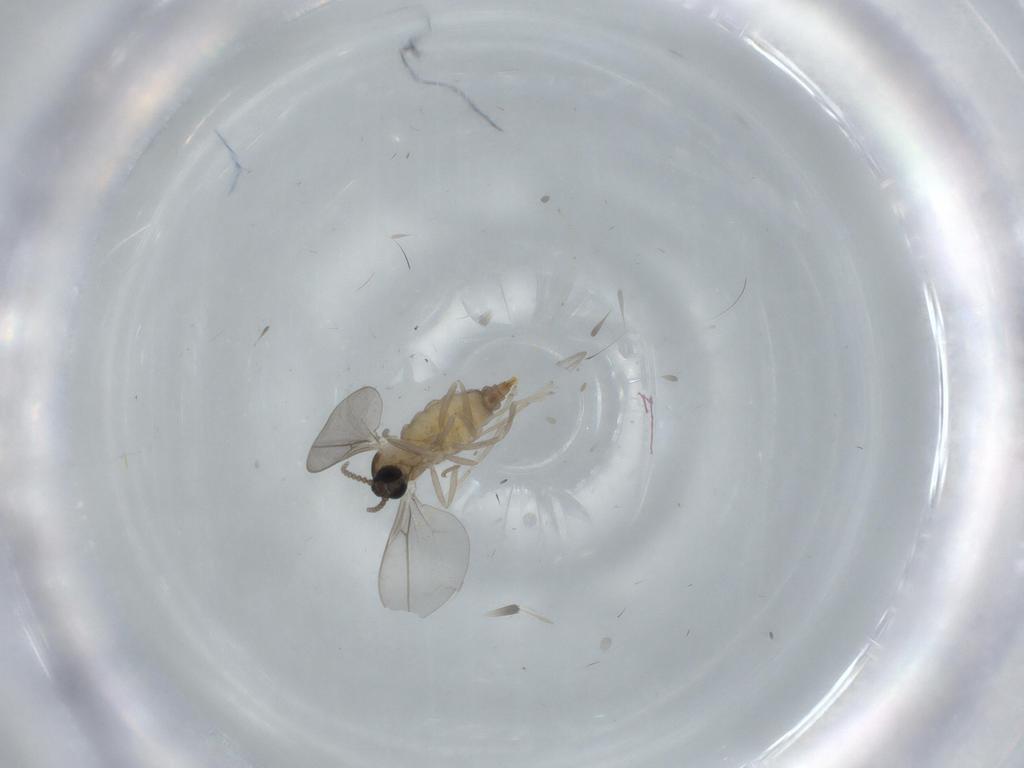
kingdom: Animalia
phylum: Arthropoda
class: Insecta
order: Diptera
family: Cecidomyiidae
